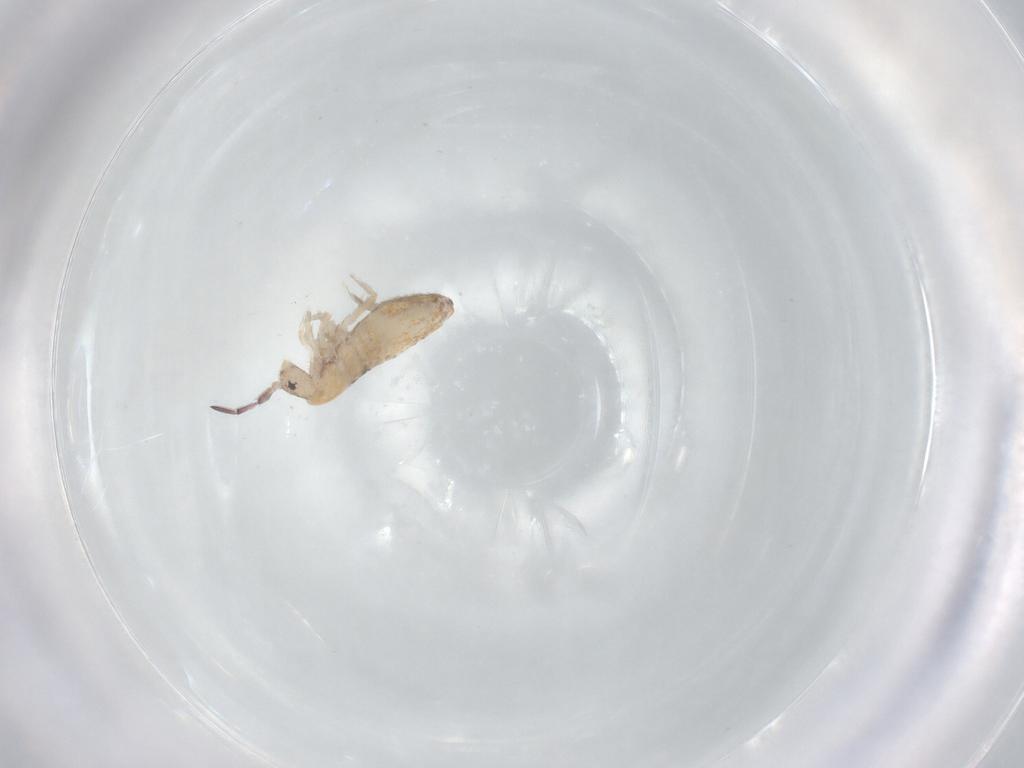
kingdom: Animalia
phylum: Arthropoda
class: Collembola
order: Entomobryomorpha
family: Entomobryidae
